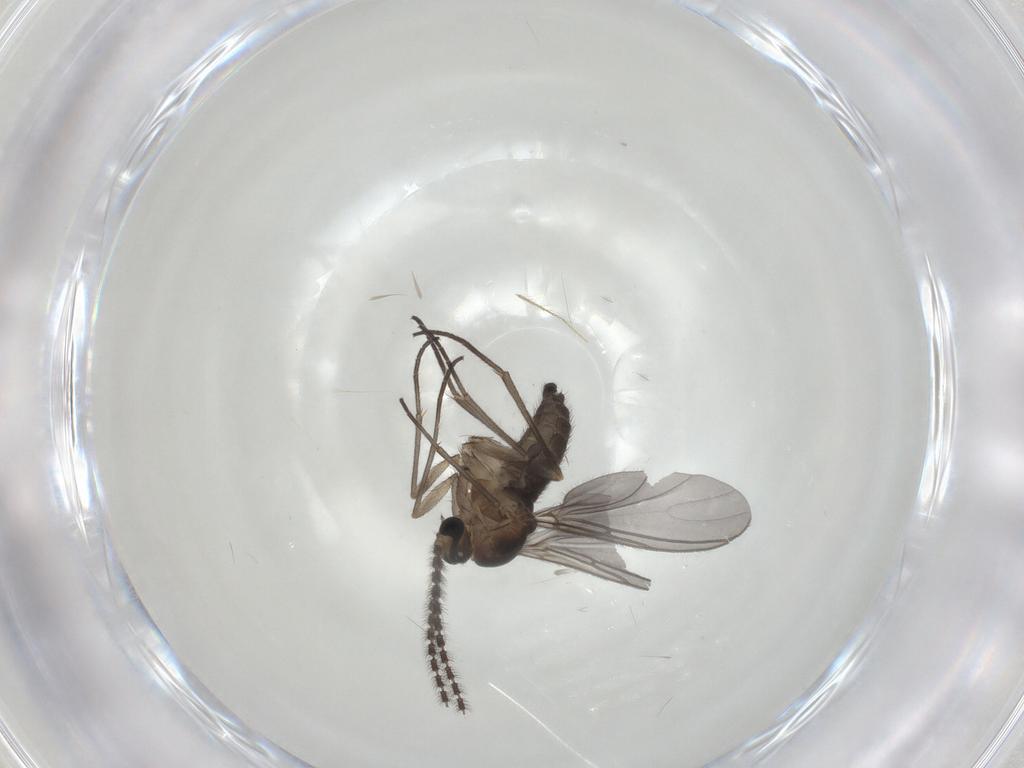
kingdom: Animalia
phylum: Arthropoda
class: Insecta
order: Diptera
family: Sciaridae
